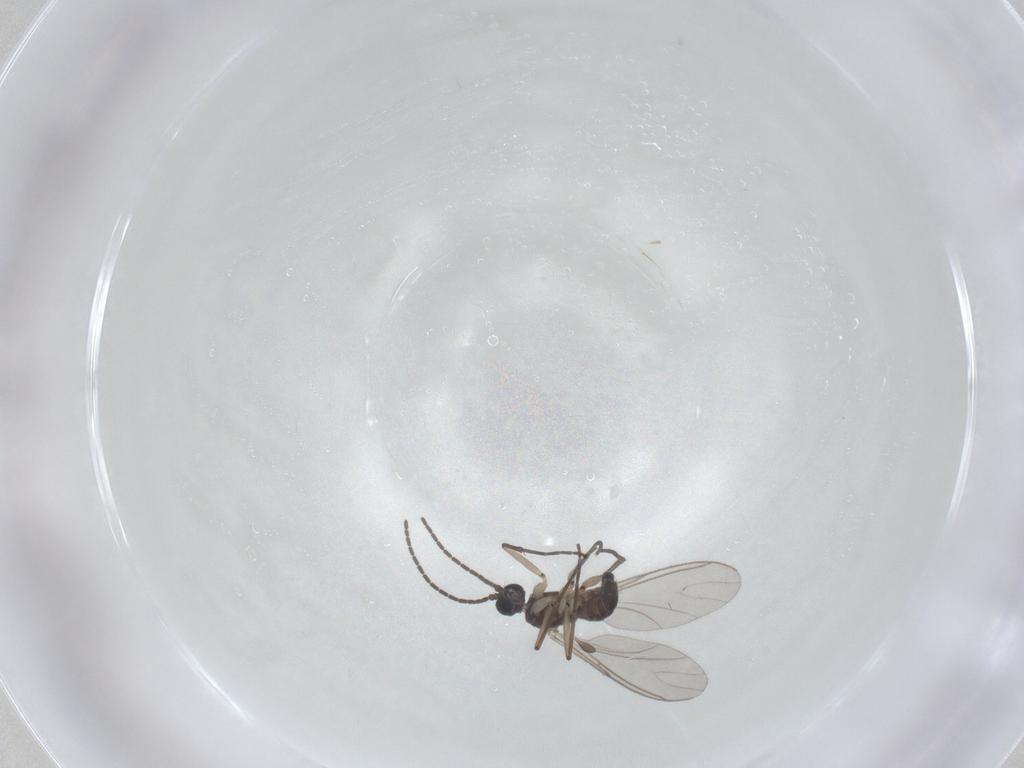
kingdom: Animalia
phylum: Arthropoda
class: Insecta
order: Diptera
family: Sciaridae
